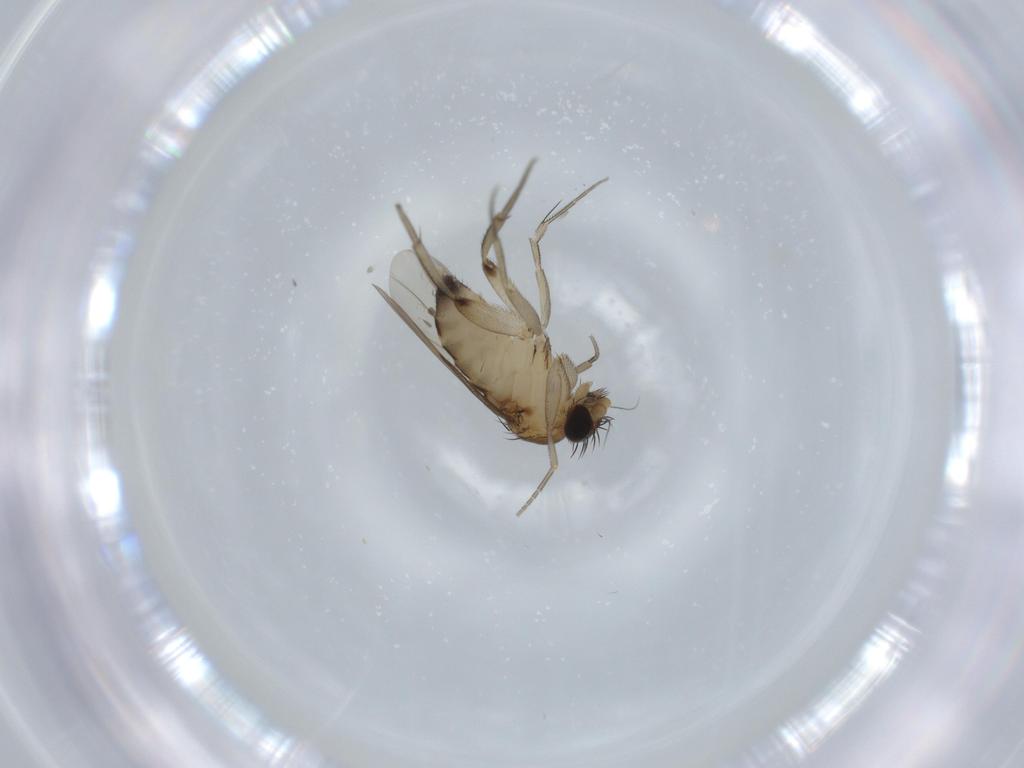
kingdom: Animalia
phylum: Arthropoda
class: Insecta
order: Diptera
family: Phoridae
